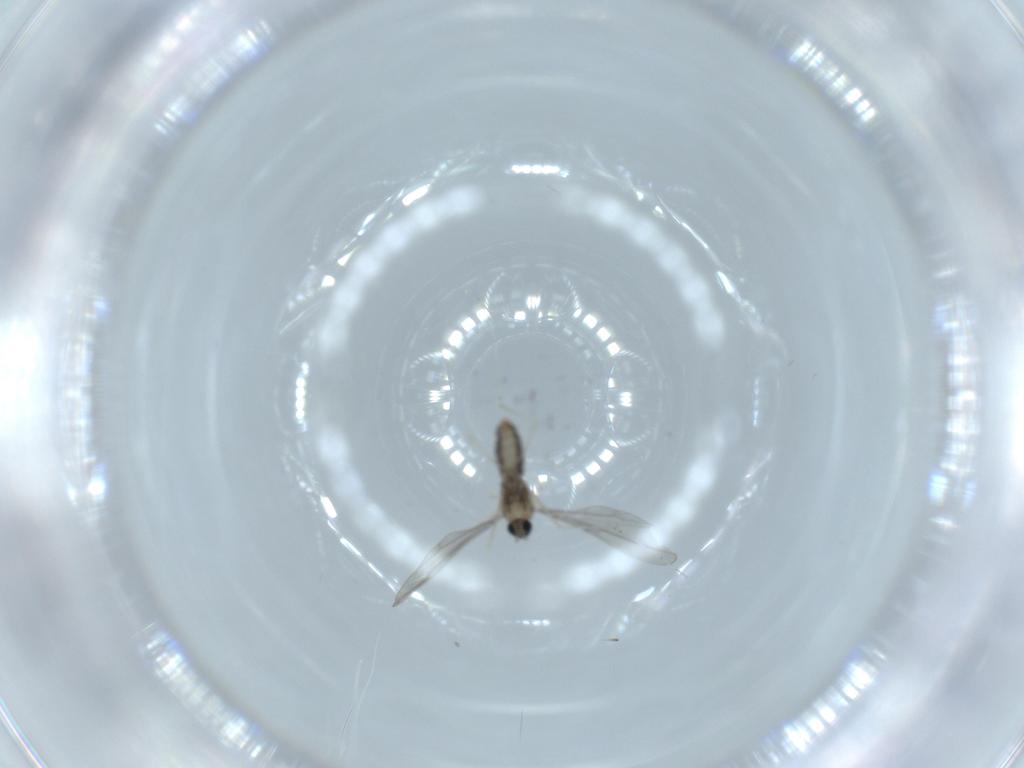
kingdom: Animalia
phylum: Arthropoda
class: Insecta
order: Diptera
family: Cecidomyiidae
